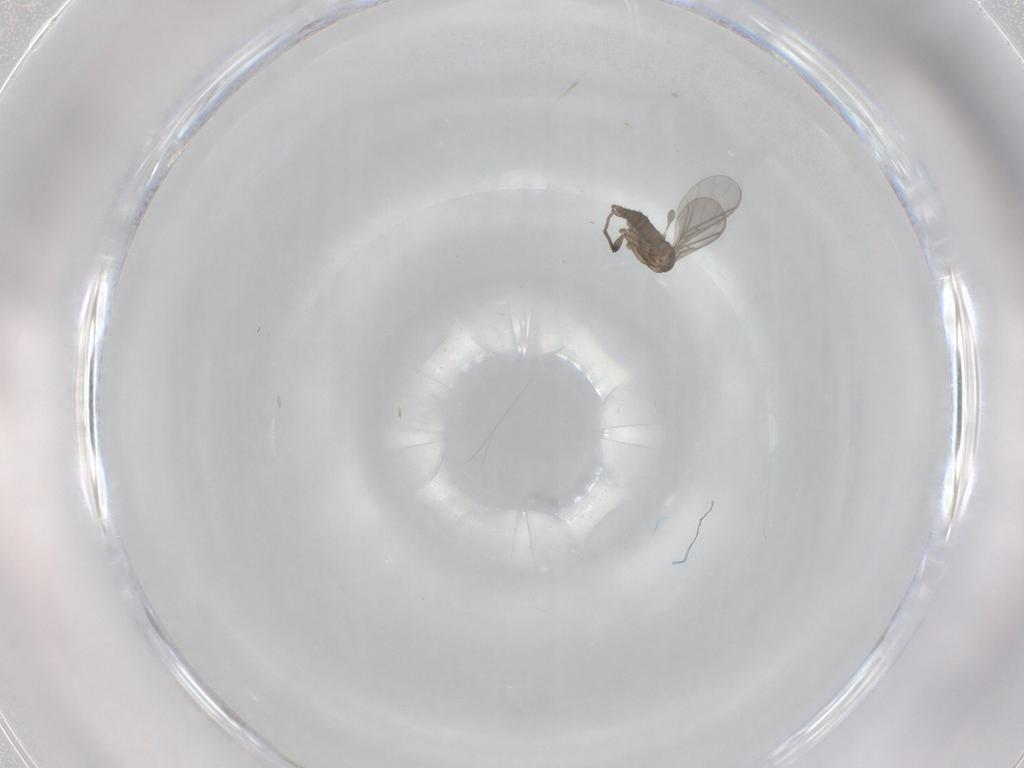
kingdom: Animalia
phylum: Arthropoda
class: Insecta
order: Diptera
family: Sciaridae
